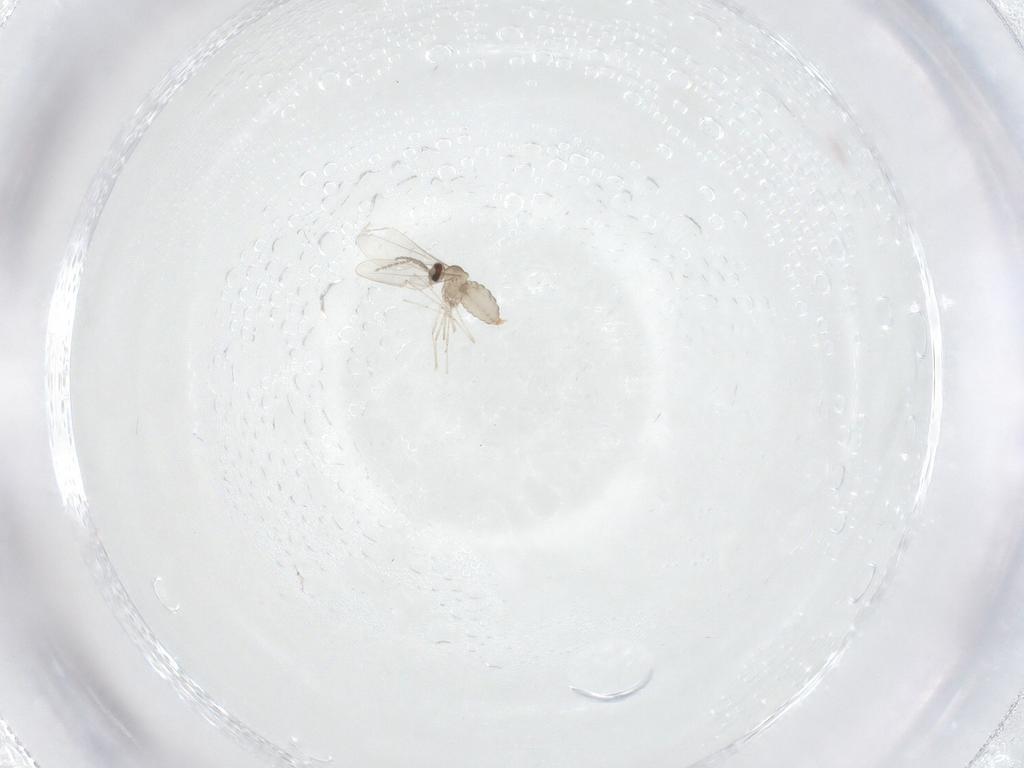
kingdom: Animalia
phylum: Arthropoda
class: Insecta
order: Diptera
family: Cecidomyiidae
